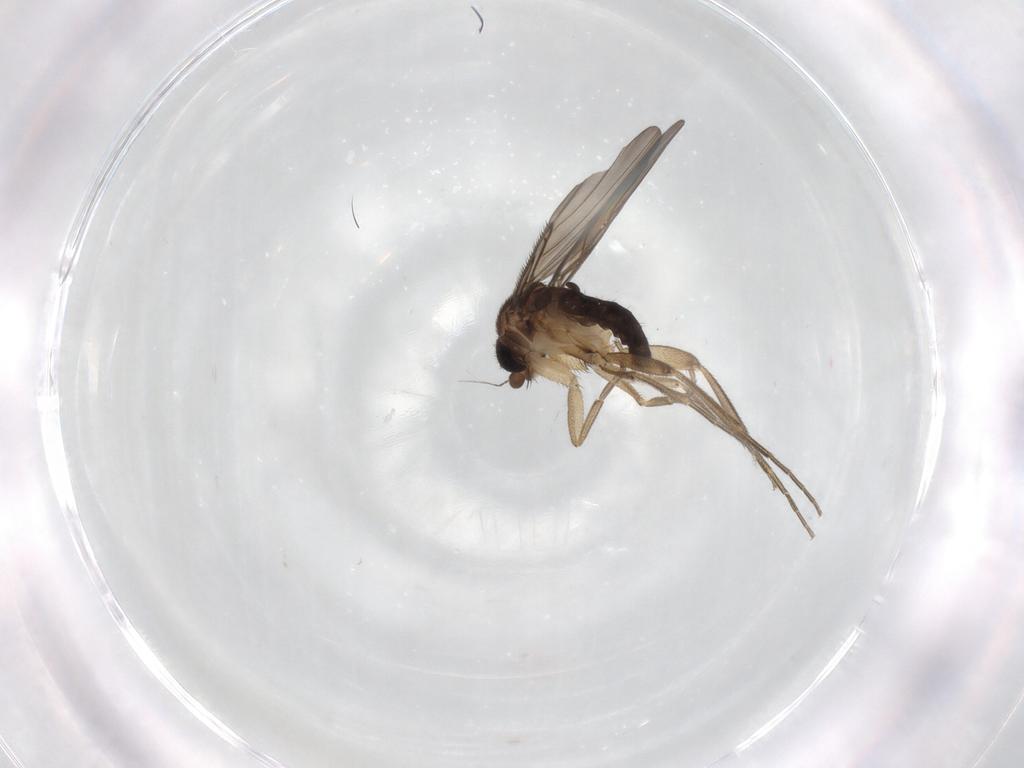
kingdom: Animalia
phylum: Arthropoda
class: Insecta
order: Diptera
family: Phoridae
